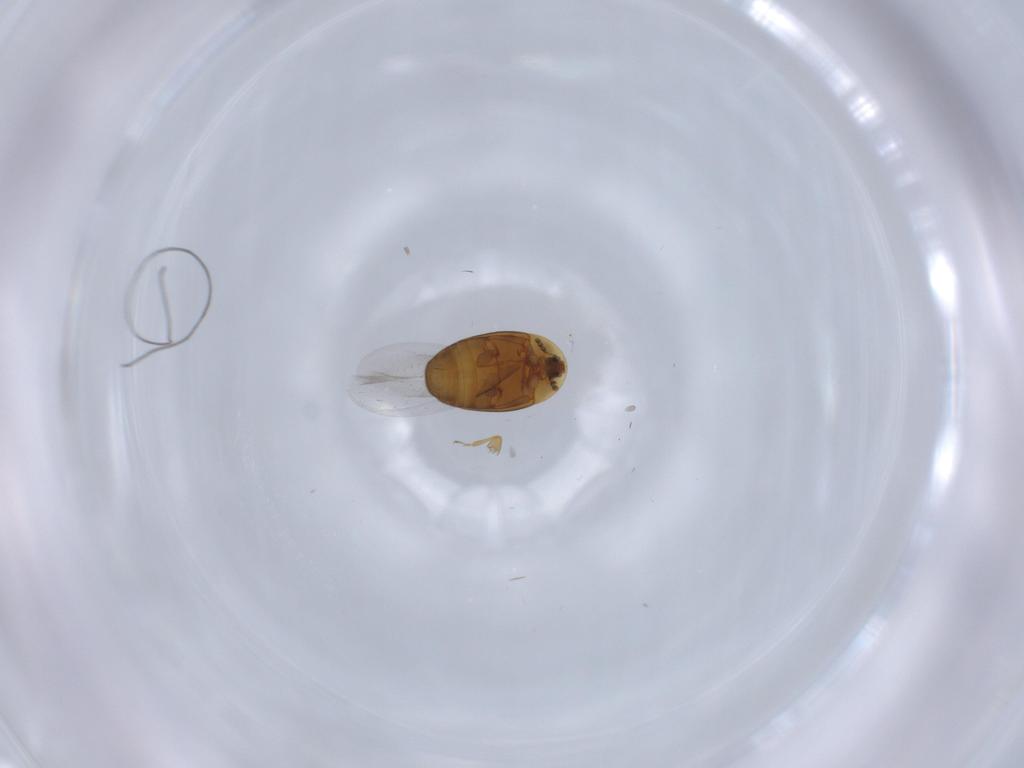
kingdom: Animalia
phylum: Arthropoda
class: Insecta
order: Coleoptera
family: Corylophidae
